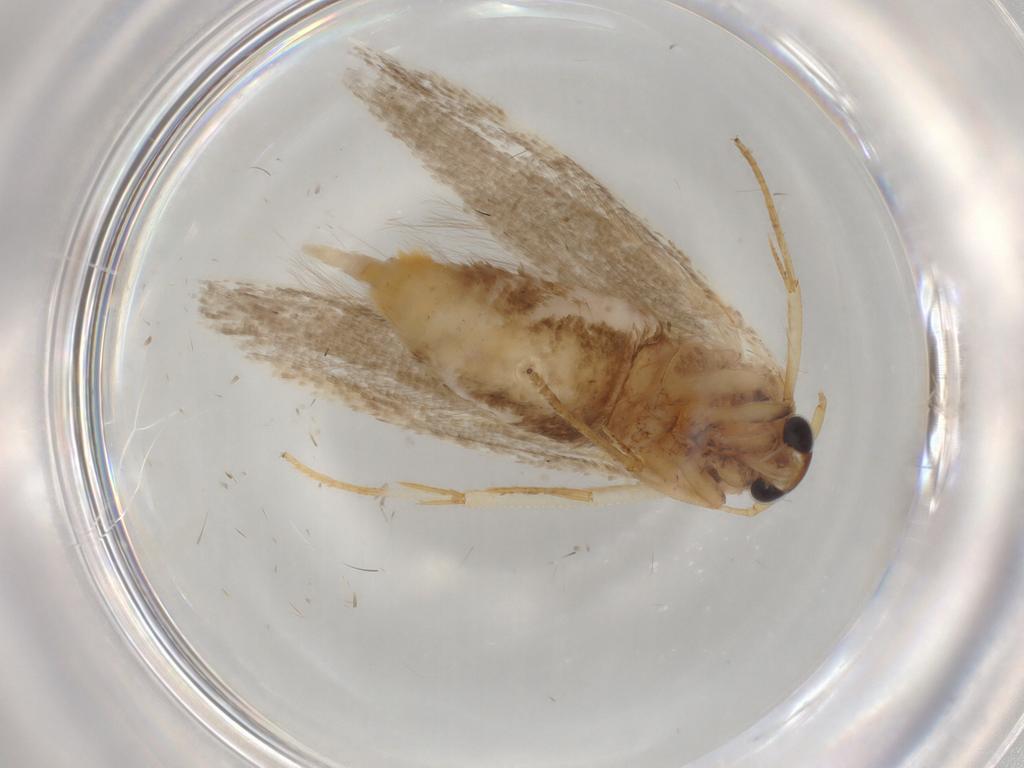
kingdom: Animalia
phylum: Arthropoda
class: Insecta
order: Lepidoptera
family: Blastobasidae
